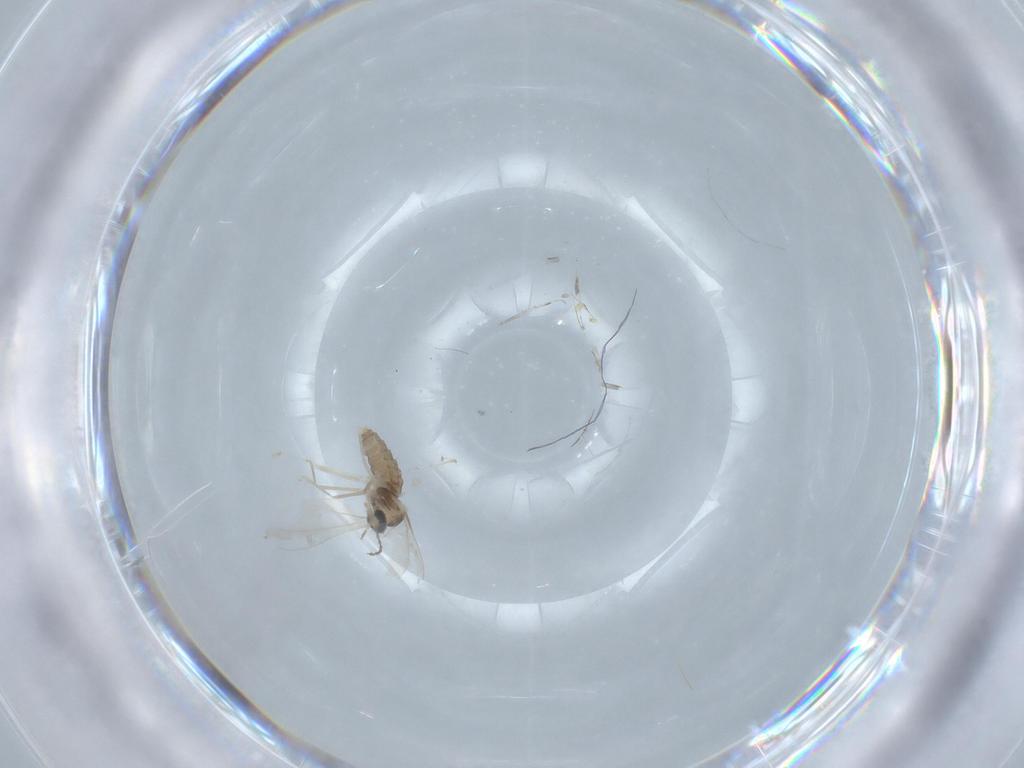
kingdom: Animalia
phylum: Arthropoda
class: Insecta
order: Diptera
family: Cecidomyiidae
